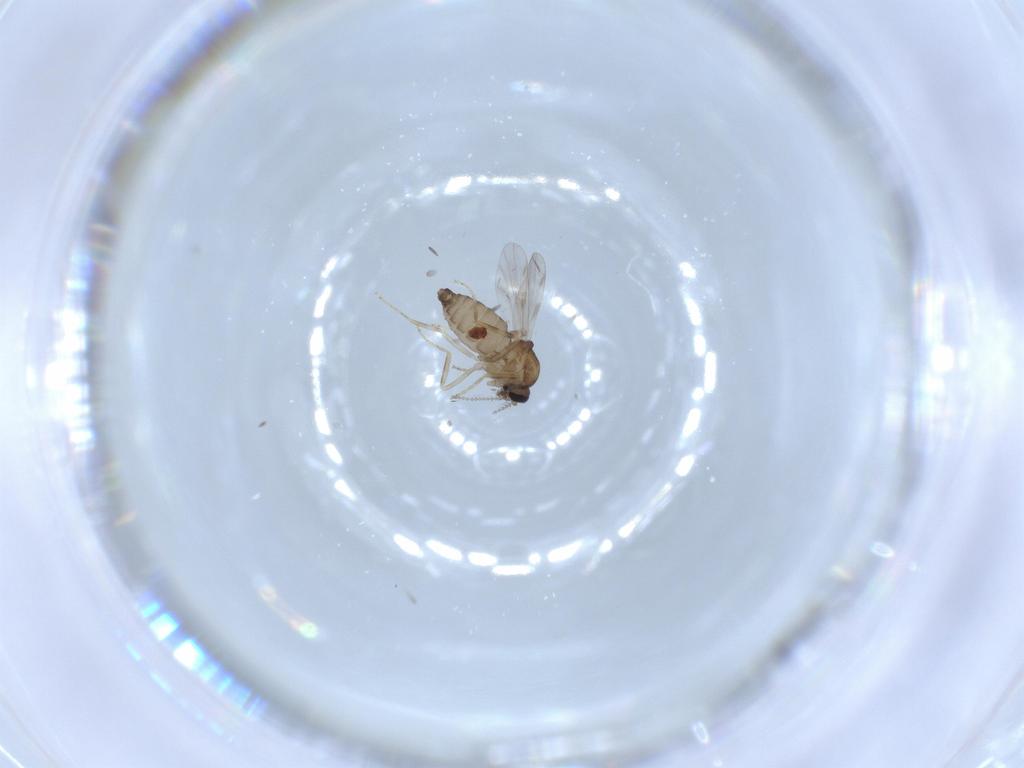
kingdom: Animalia
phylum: Arthropoda
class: Insecta
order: Diptera
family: Ceratopogonidae
